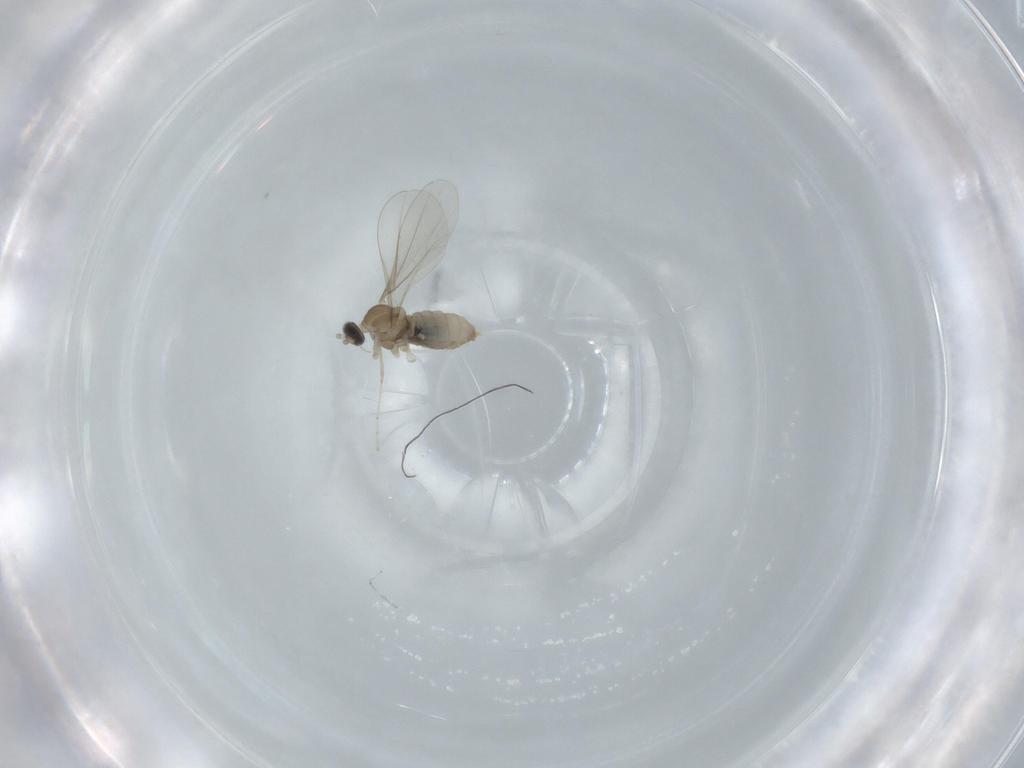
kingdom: Animalia
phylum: Arthropoda
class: Insecta
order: Diptera
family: Cecidomyiidae
